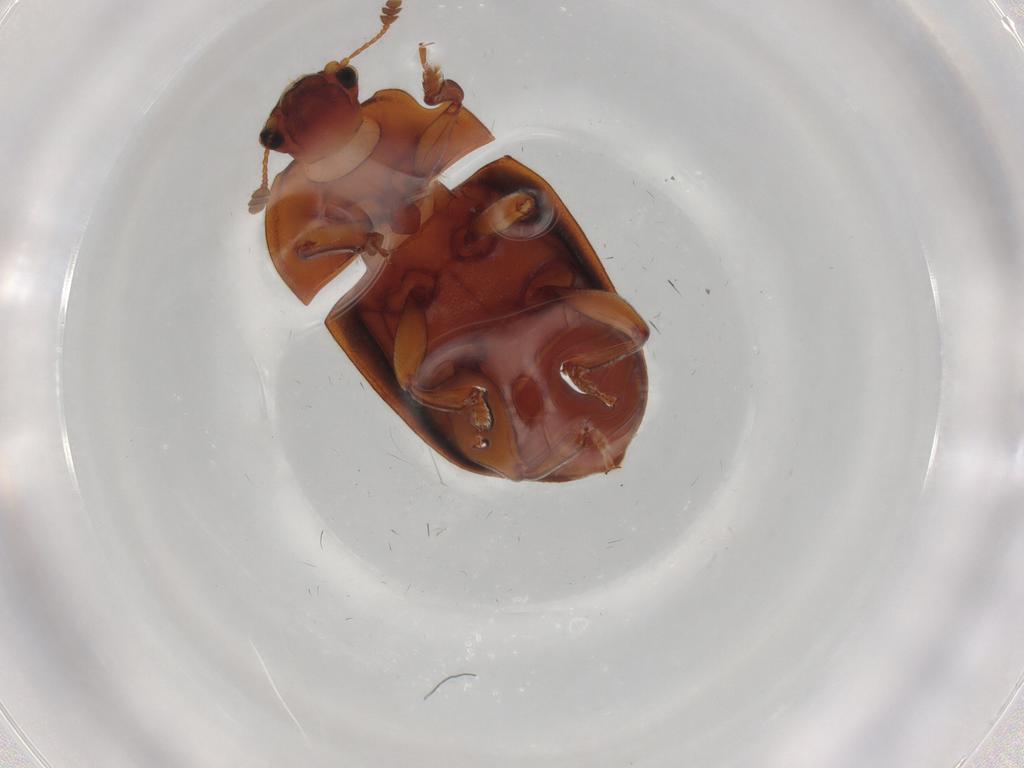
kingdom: Animalia
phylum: Arthropoda
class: Insecta
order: Coleoptera
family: Nitidulidae
